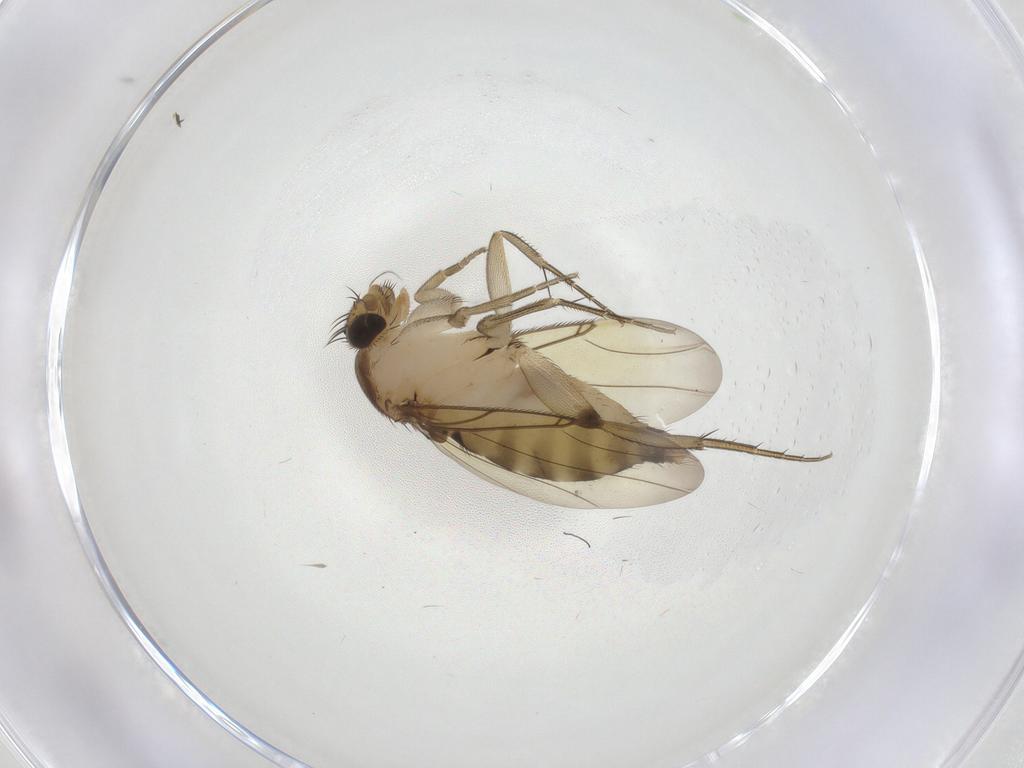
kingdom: Animalia
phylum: Arthropoda
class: Insecta
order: Diptera
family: Phoridae
